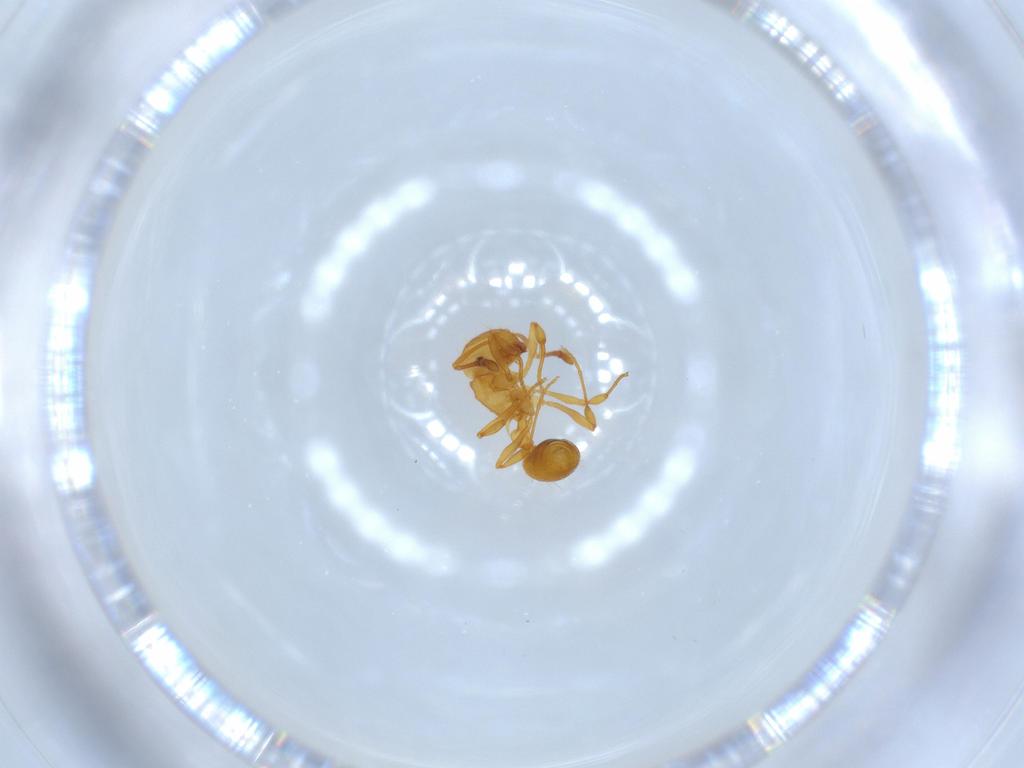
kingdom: Animalia
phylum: Arthropoda
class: Insecta
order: Hymenoptera
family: Formicidae
